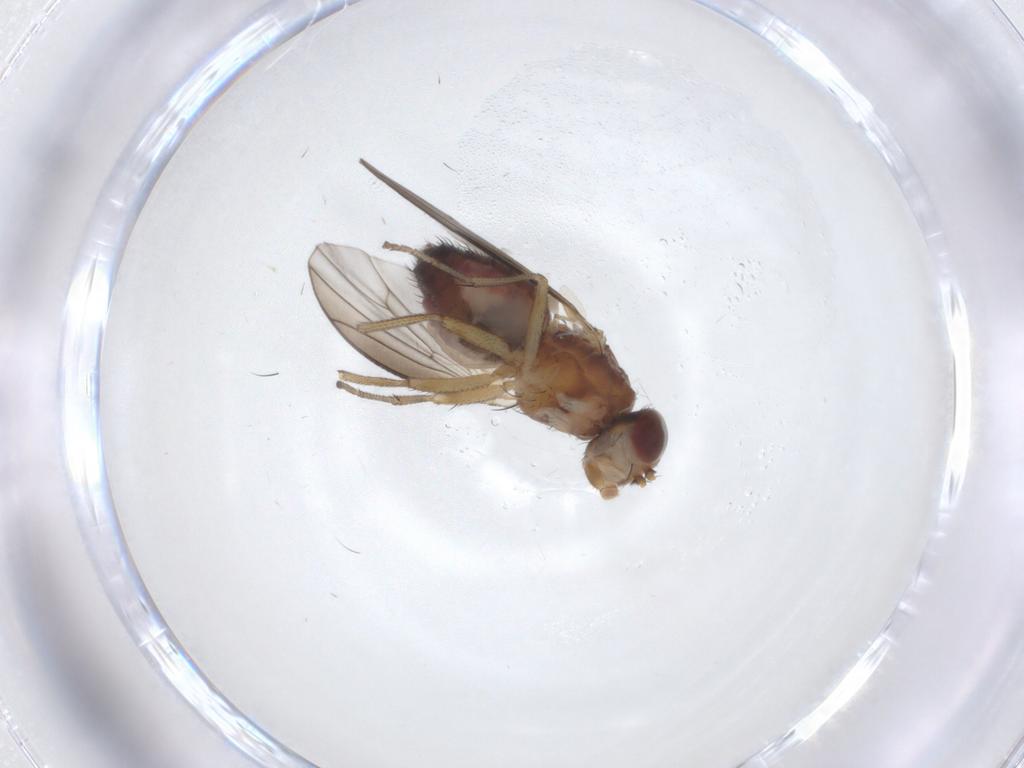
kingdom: Animalia
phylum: Arthropoda
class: Insecta
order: Diptera
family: Heleomyzidae
